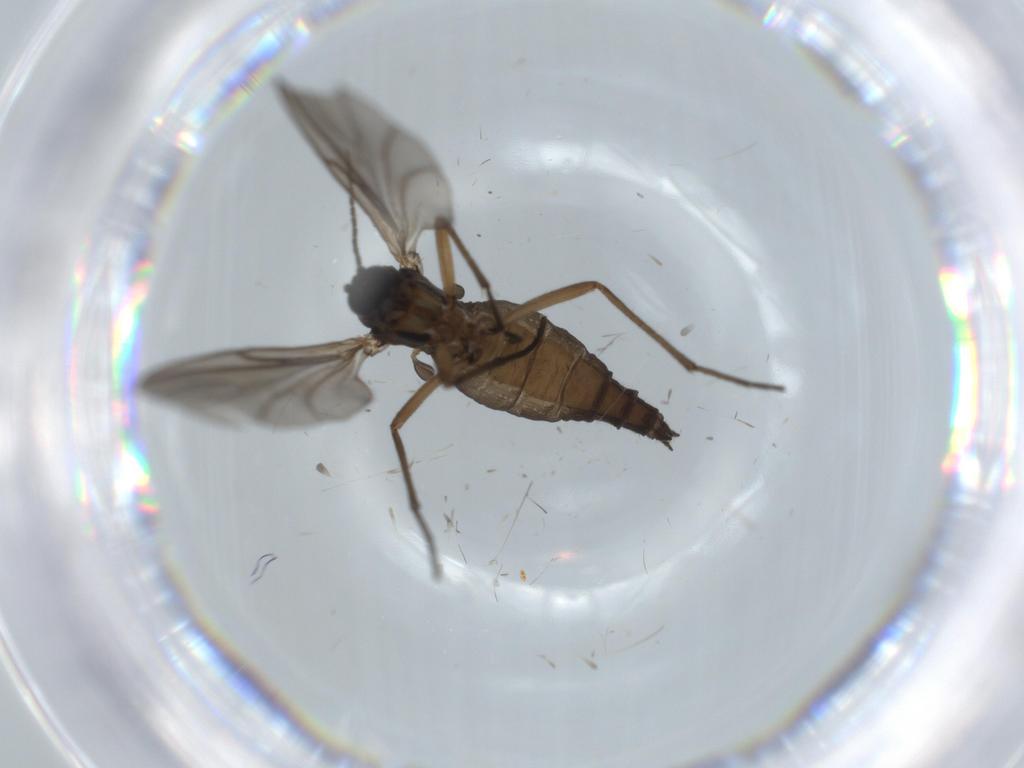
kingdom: Animalia
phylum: Arthropoda
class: Insecta
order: Diptera
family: Sciaridae
